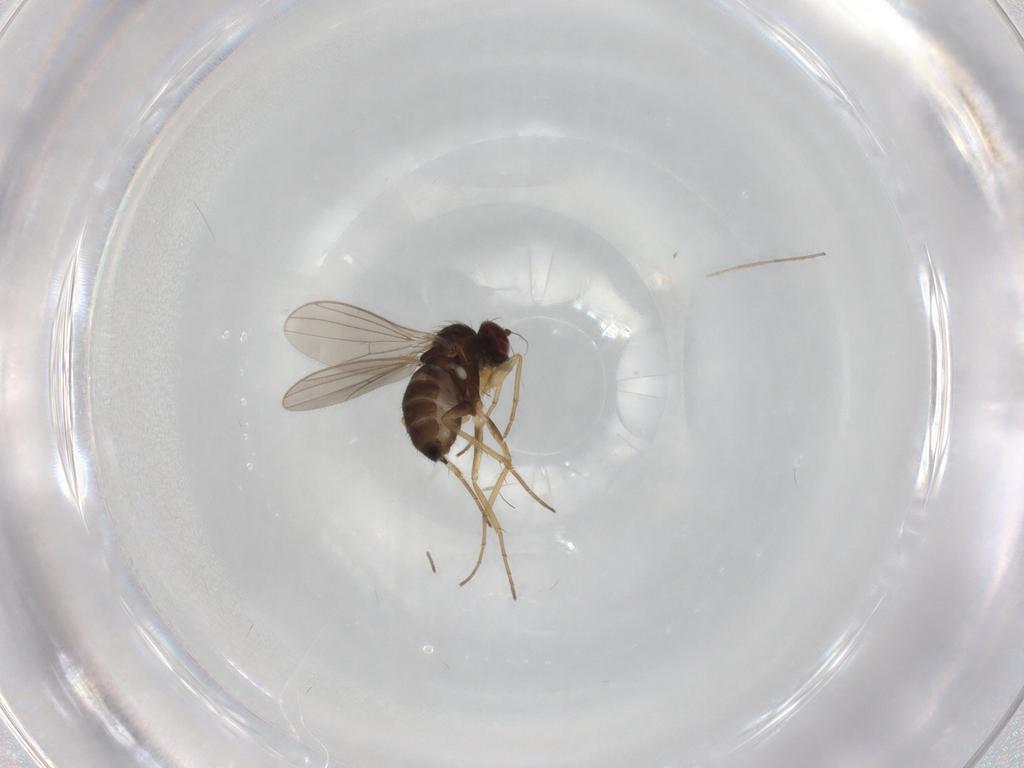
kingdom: Animalia
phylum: Arthropoda
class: Insecta
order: Diptera
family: Chironomidae
